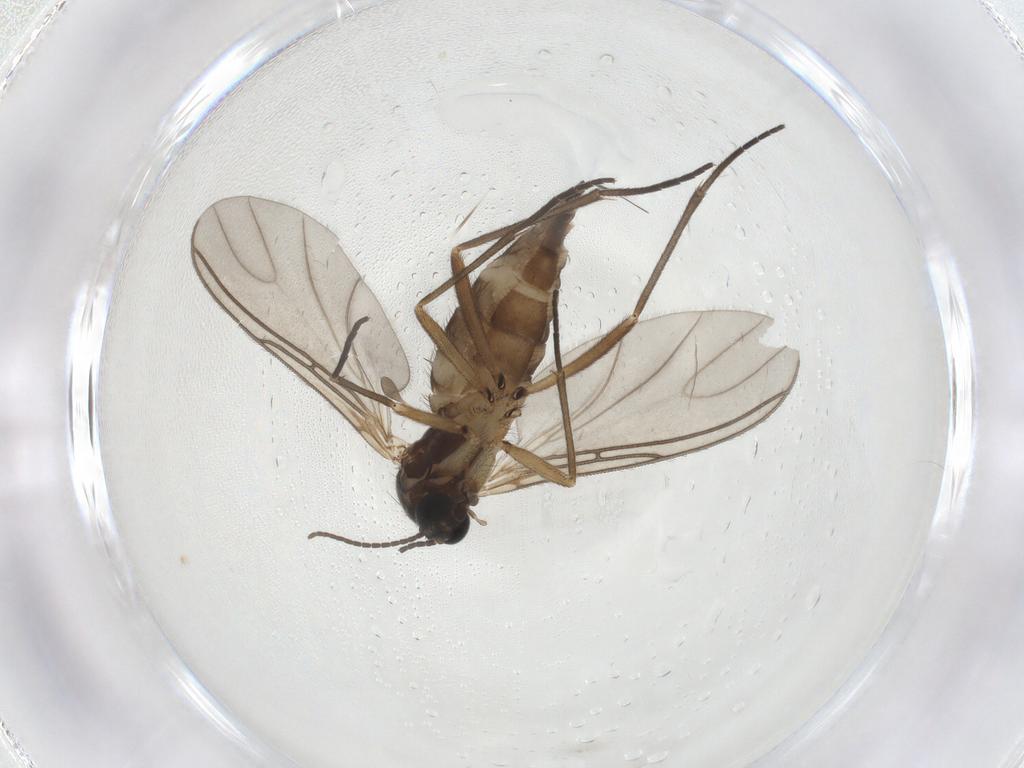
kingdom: Animalia
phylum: Arthropoda
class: Insecta
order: Diptera
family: Sciaridae
